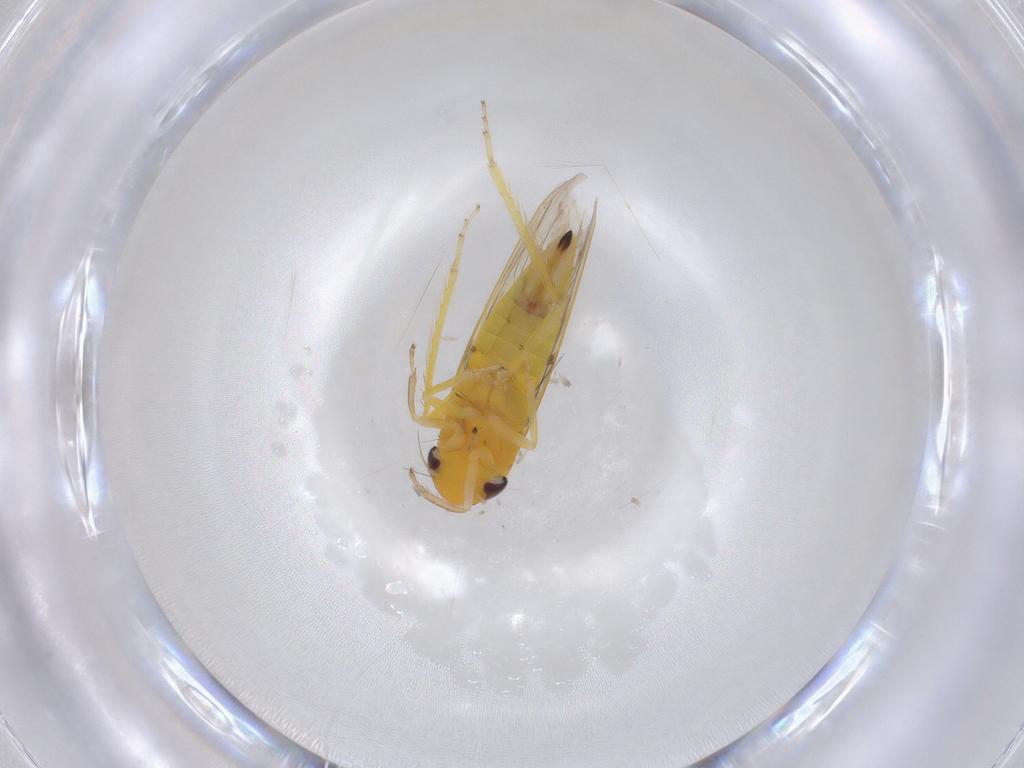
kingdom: Animalia
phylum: Arthropoda
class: Insecta
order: Hemiptera
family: Cicadellidae
